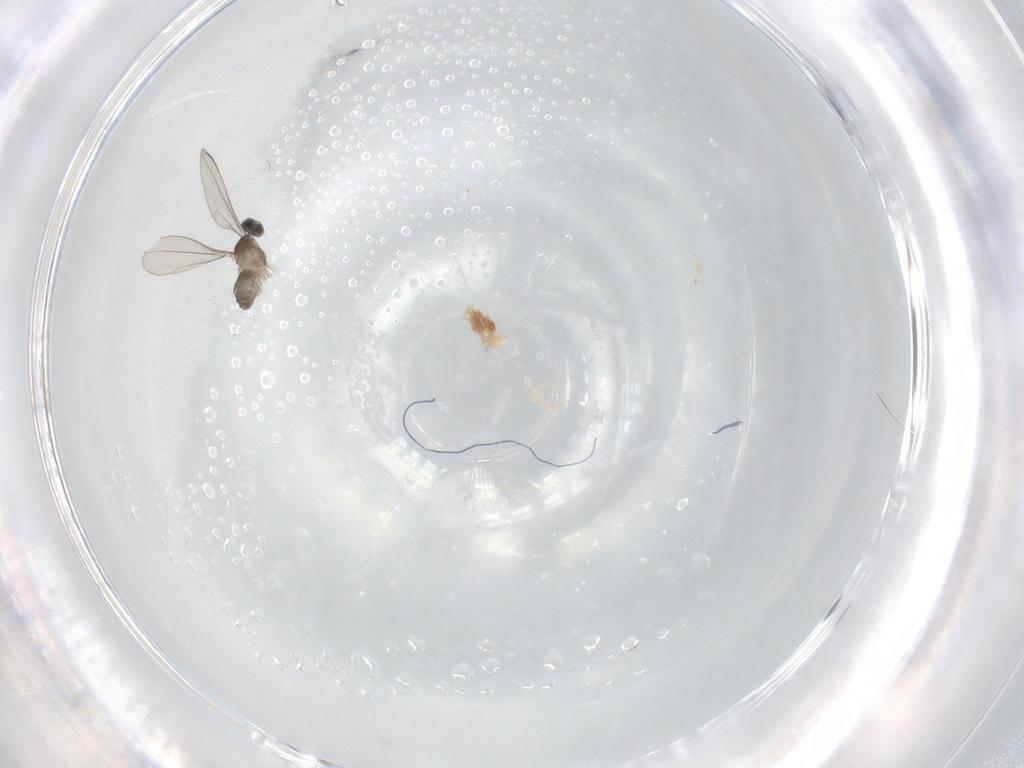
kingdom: Animalia
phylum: Arthropoda
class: Insecta
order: Diptera
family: Cecidomyiidae
